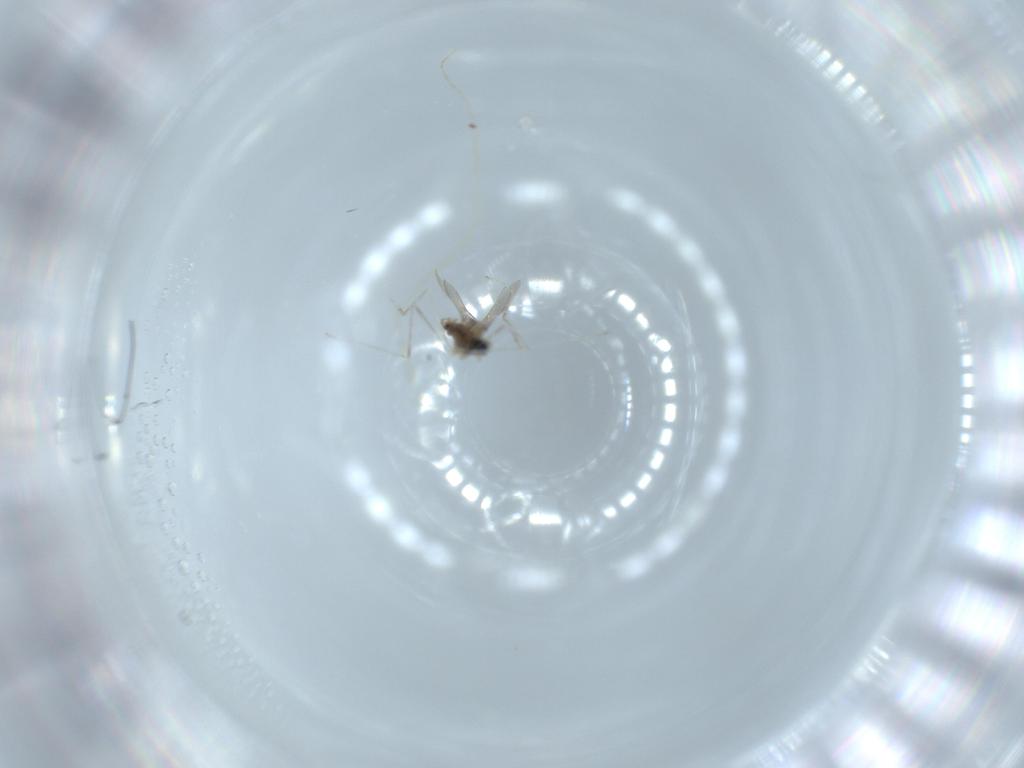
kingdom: Animalia
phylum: Arthropoda
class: Insecta
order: Diptera
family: Cecidomyiidae
